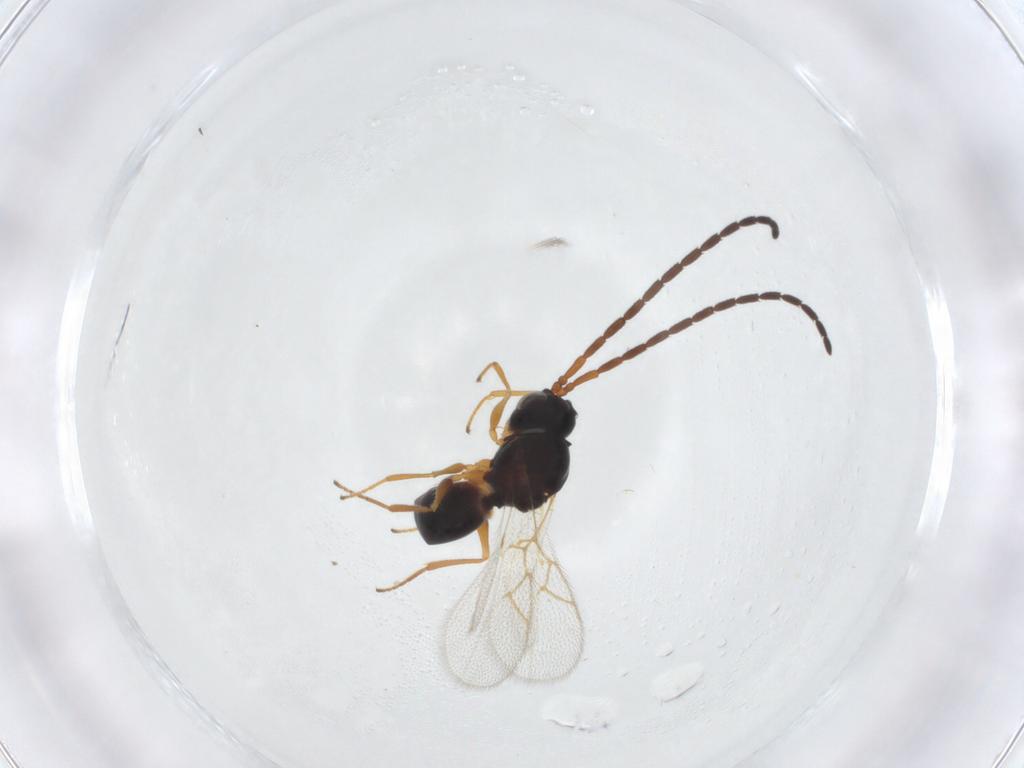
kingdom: Animalia
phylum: Arthropoda
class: Insecta
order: Hymenoptera
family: Figitidae
